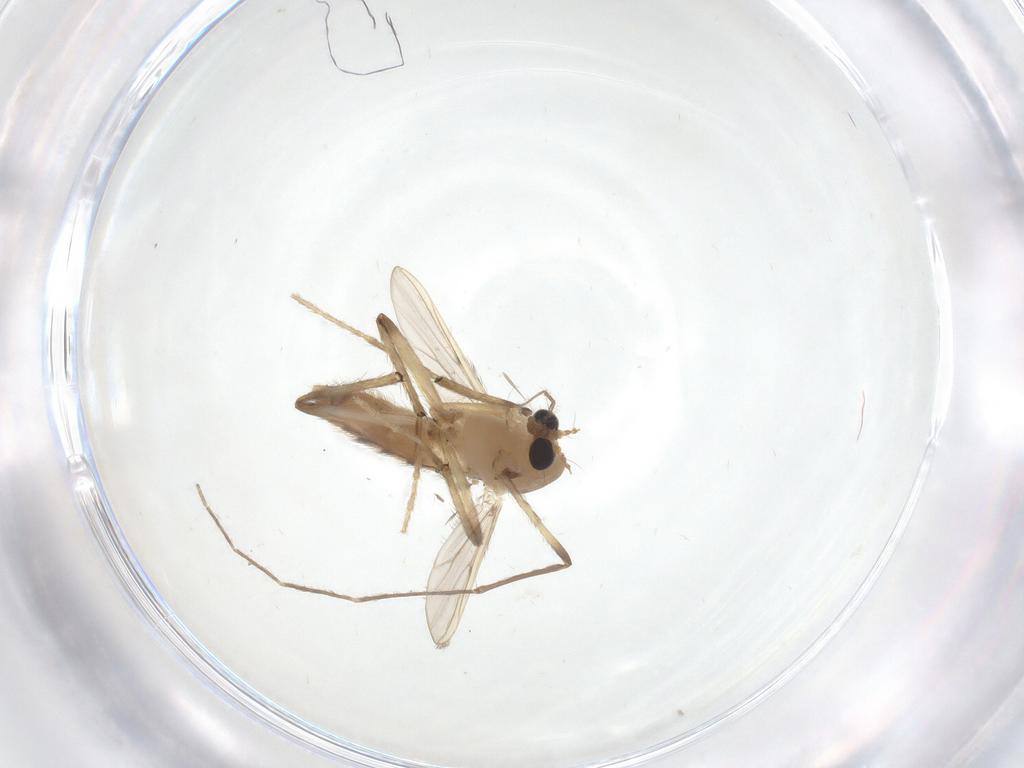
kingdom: Animalia
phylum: Arthropoda
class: Insecta
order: Diptera
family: Chironomidae
